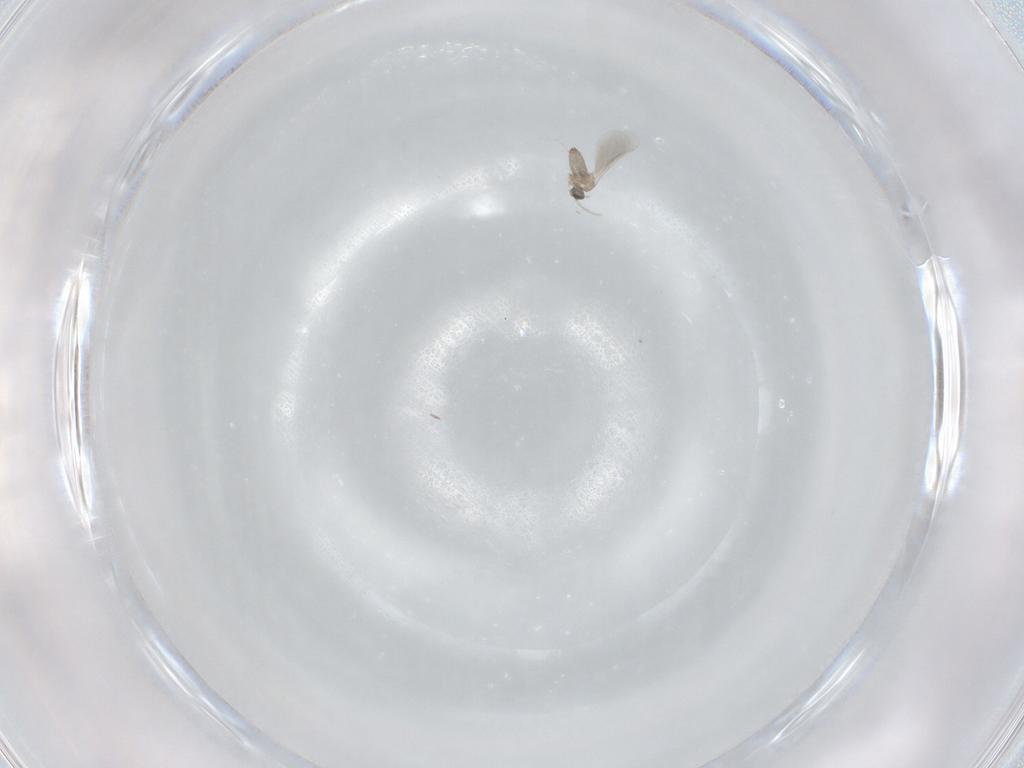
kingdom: Animalia
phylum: Arthropoda
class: Insecta
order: Diptera
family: Cecidomyiidae
